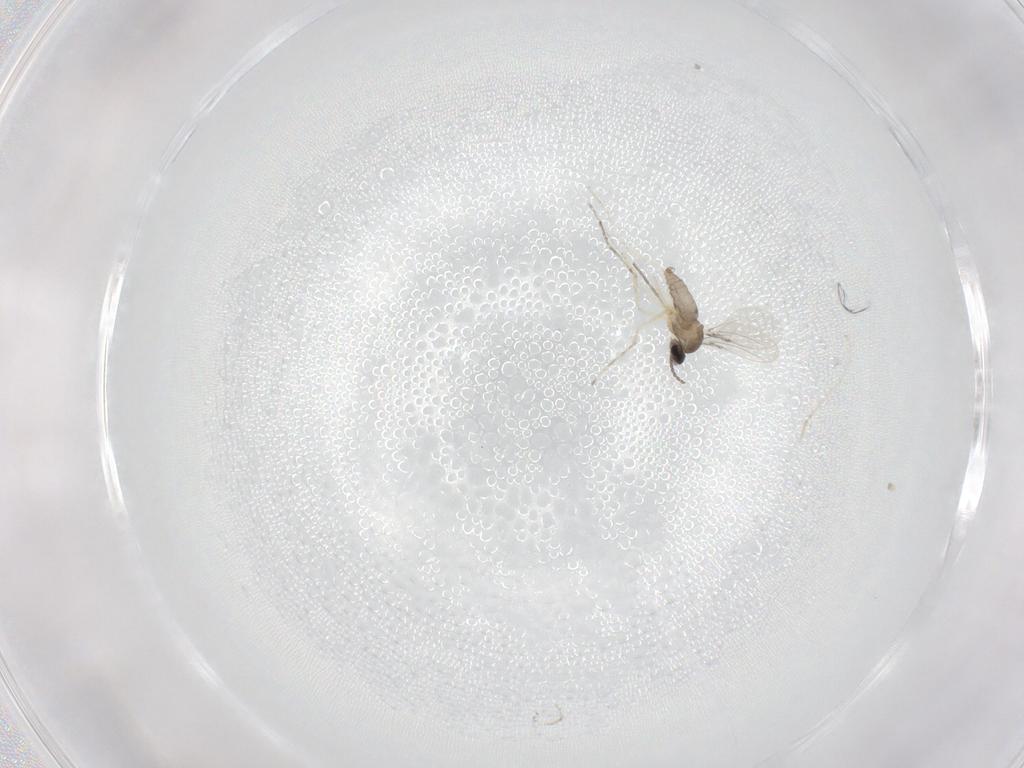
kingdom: Animalia
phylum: Arthropoda
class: Insecta
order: Diptera
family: Cecidomyiidae
